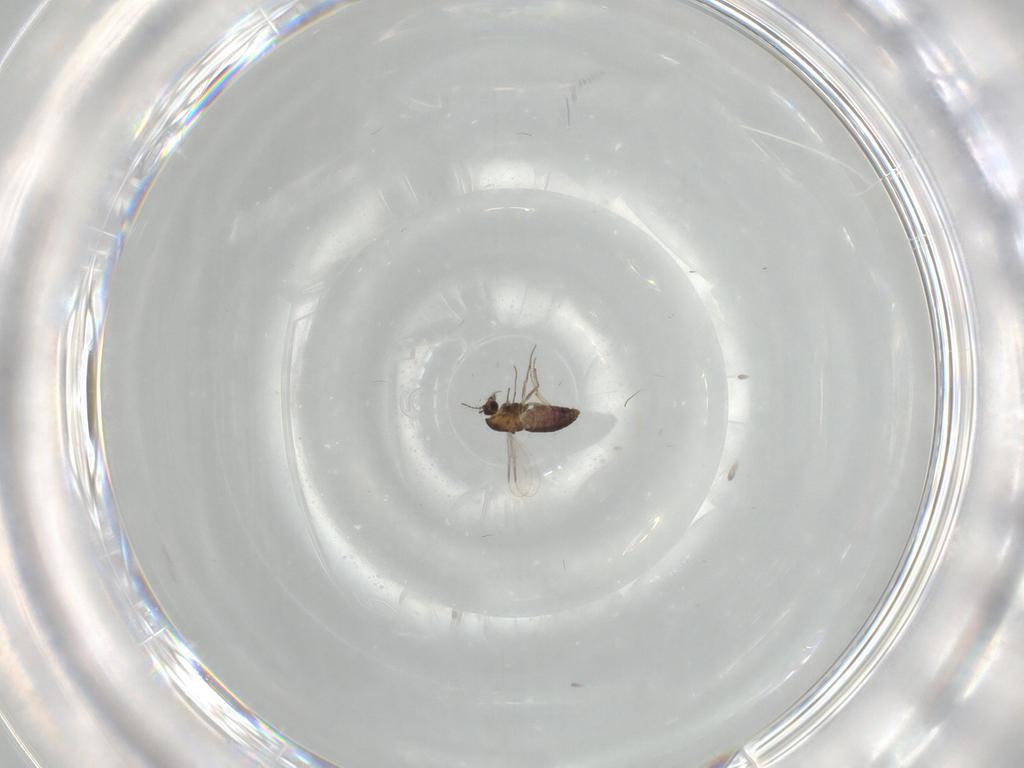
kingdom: Animalia
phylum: Arthropoda
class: Insecta
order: Diptera
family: Chironomidae
